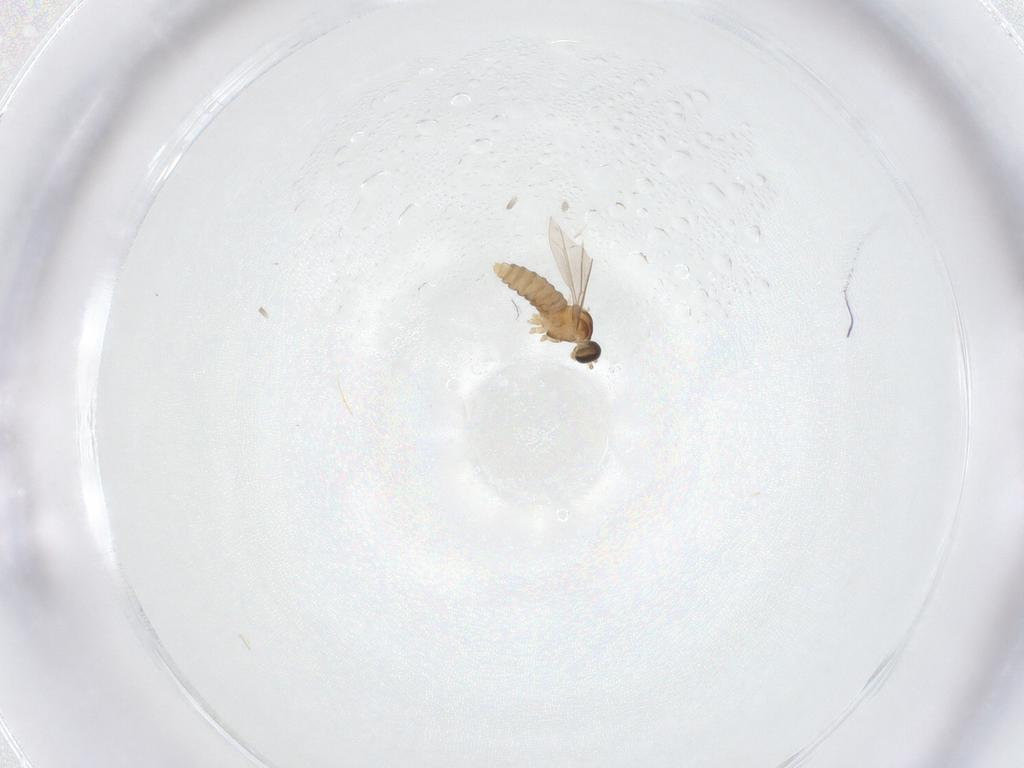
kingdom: Animalia
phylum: Arthropoda
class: Insecta
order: Diptera
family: Cecidomyiidae
